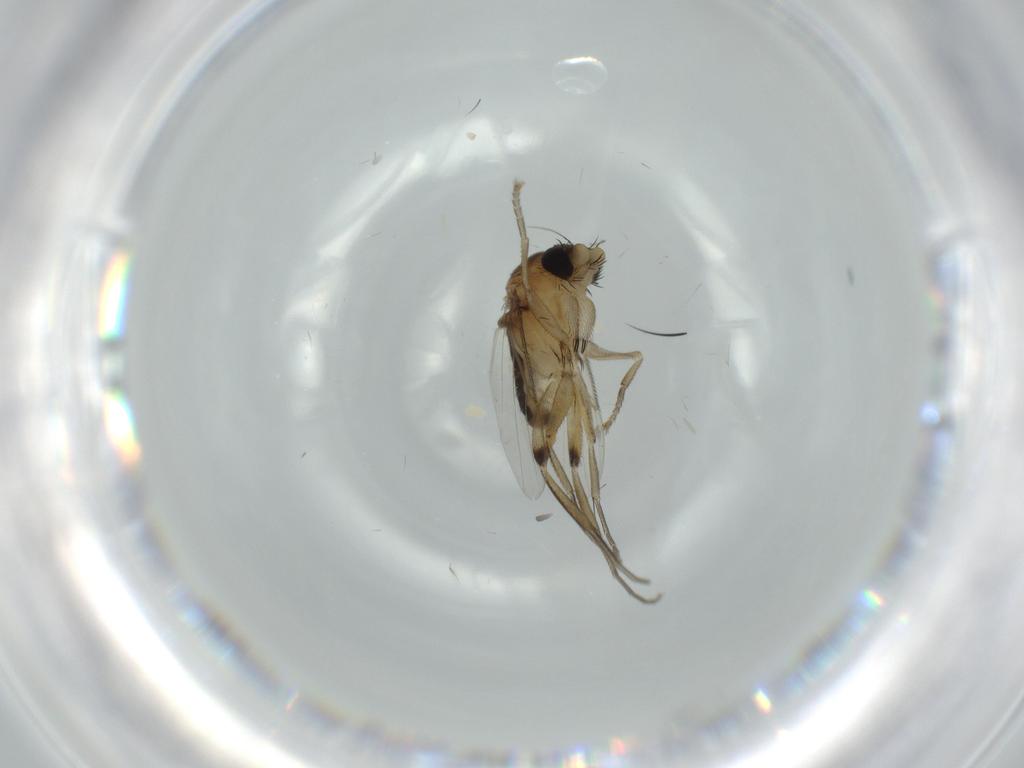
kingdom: Animalia
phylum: Arthropoda
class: Insecta
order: Diptera
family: Phoridae
